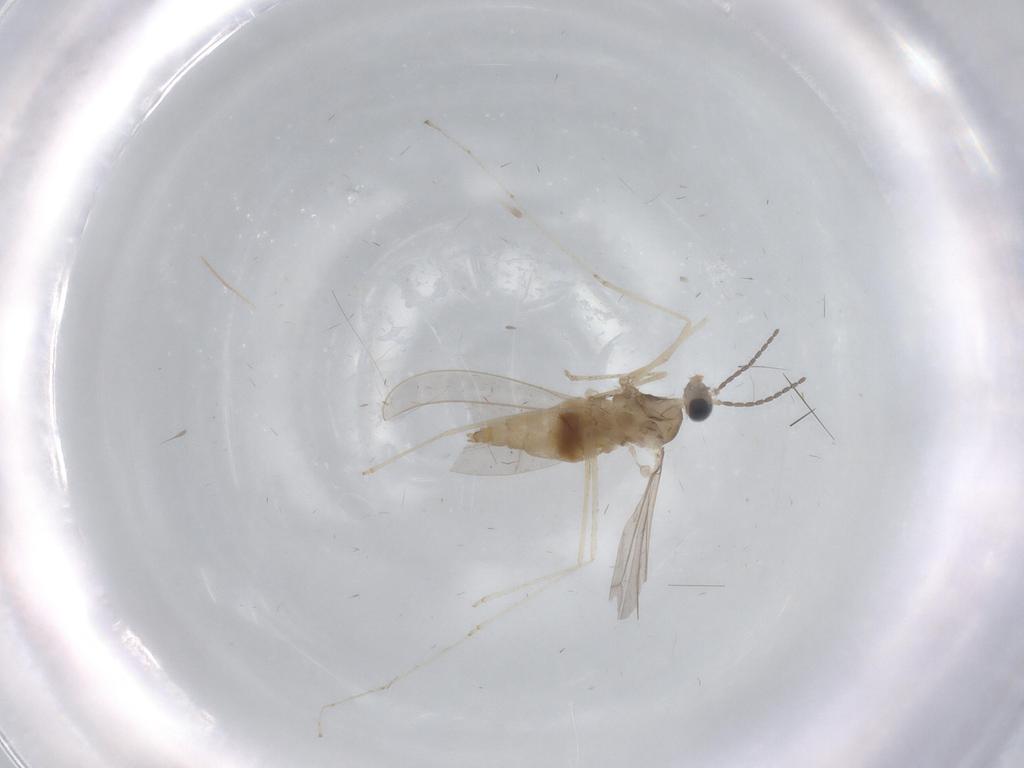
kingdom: Animalia
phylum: Arthropoda
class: Insecta
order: Diptera
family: Cecidomyiidae
